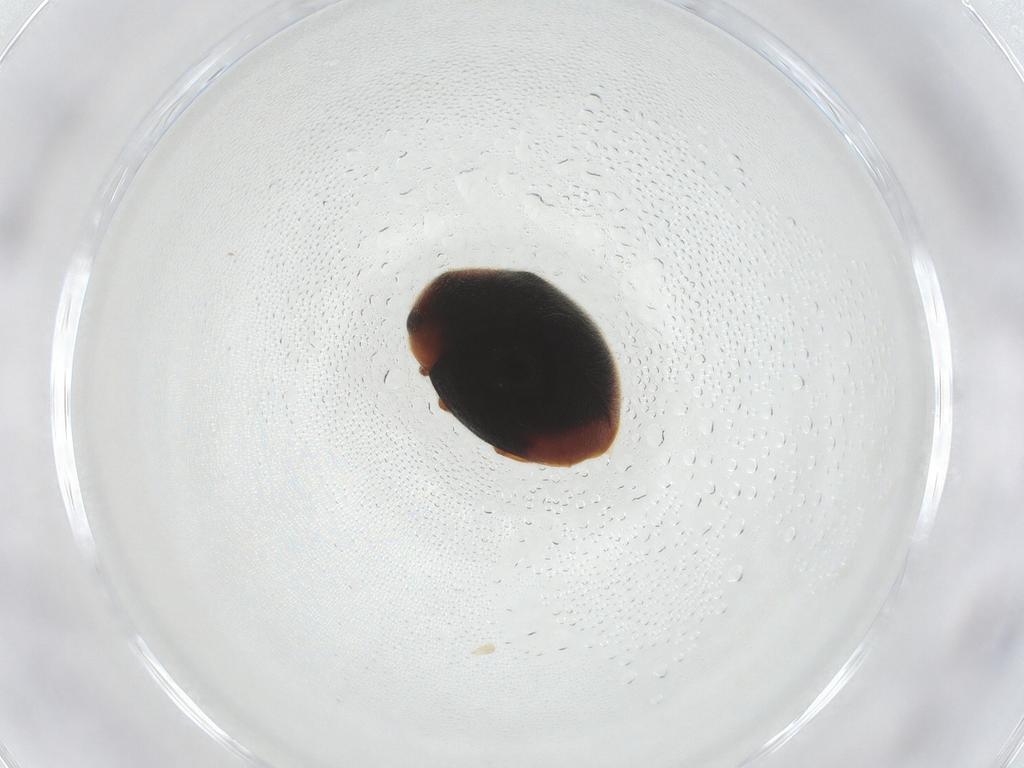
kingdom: Animalia
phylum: Arthropoda
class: Insecta
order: Coleoptera
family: Coccinellidae
